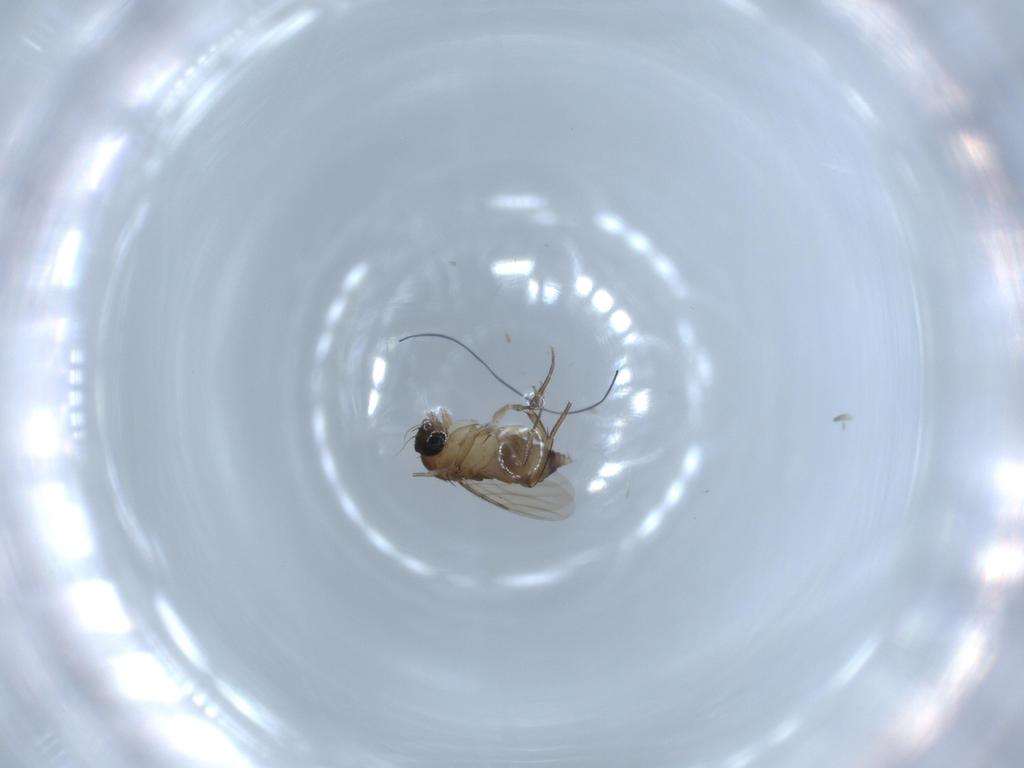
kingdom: Animalia
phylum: Arthropoda
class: Insecta
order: Diptera
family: Phoridae
